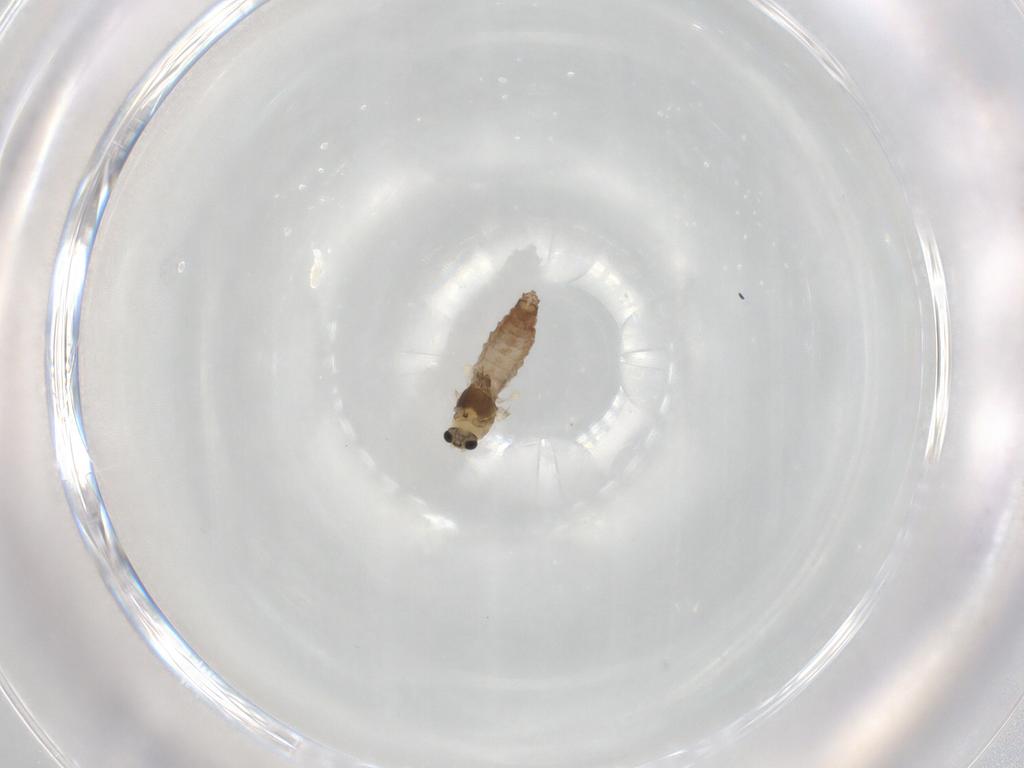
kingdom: Animalia
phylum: Arthropoda
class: Insecta
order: Diptera
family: Chironomidae
